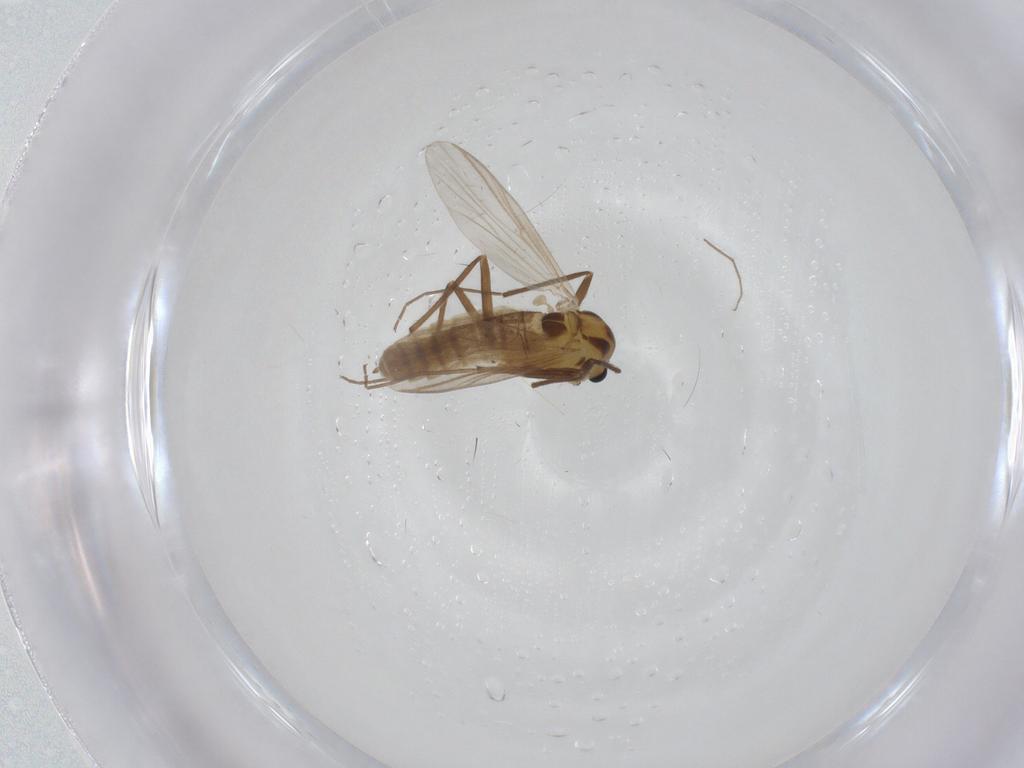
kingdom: Animalia
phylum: Arthropoda
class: Insecta
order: Diptera
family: Chironomidae
